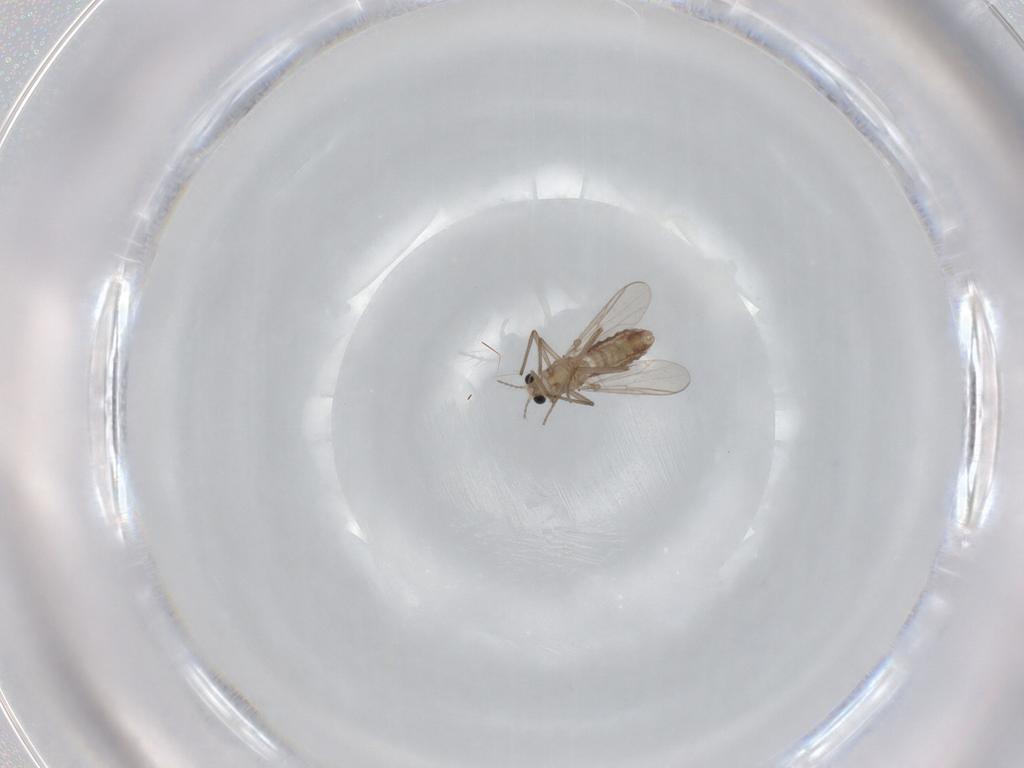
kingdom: Animalia
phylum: Arthropoda
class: Insecta
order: Diptera
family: Chironomidae
